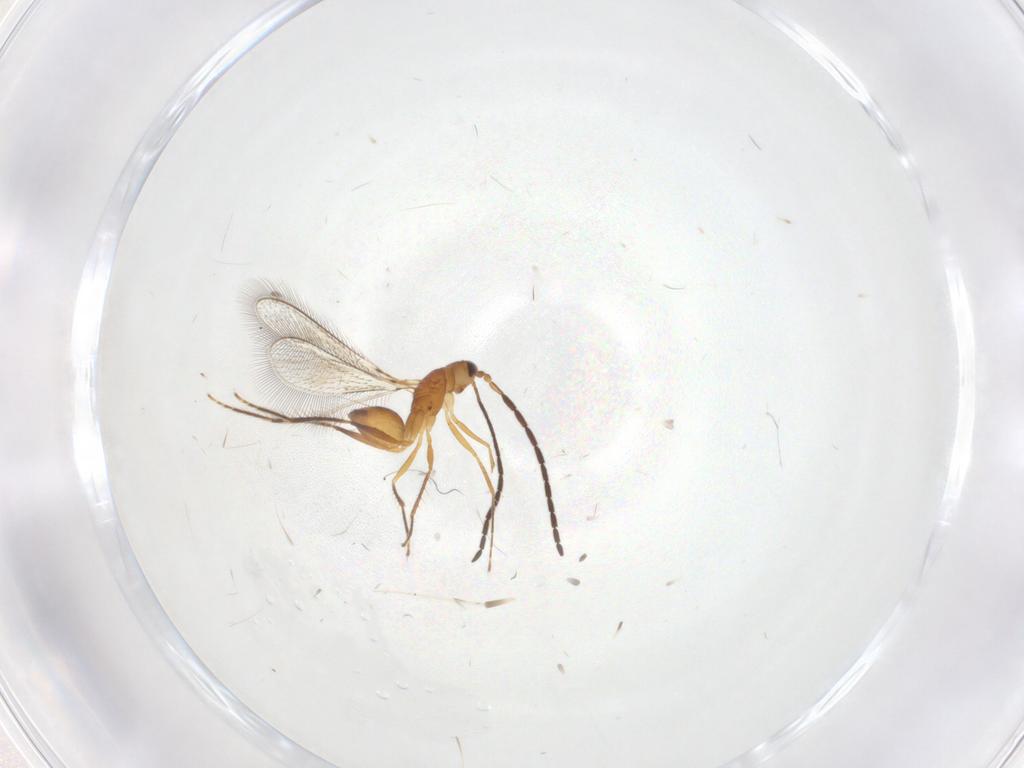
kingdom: Animalia
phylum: Arthropoda
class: Insecta
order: Hymenoptera
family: Mymaridae
